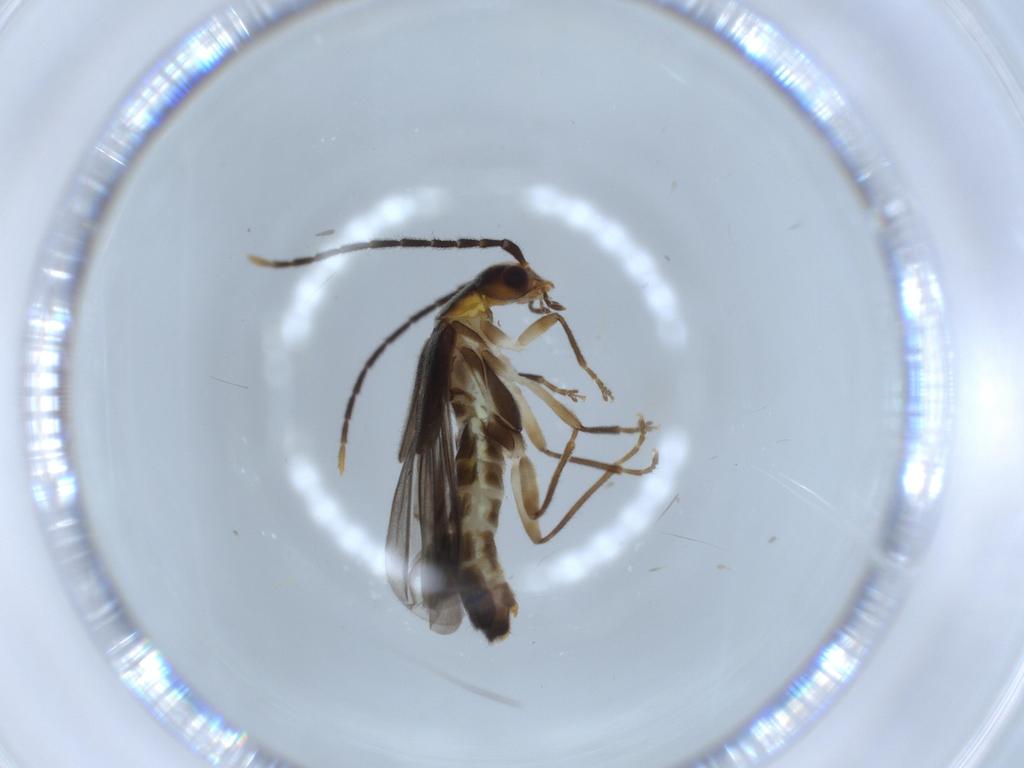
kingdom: Animalia
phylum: Arthropoda
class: Insecta
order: Coleoptera
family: Cantharidae
